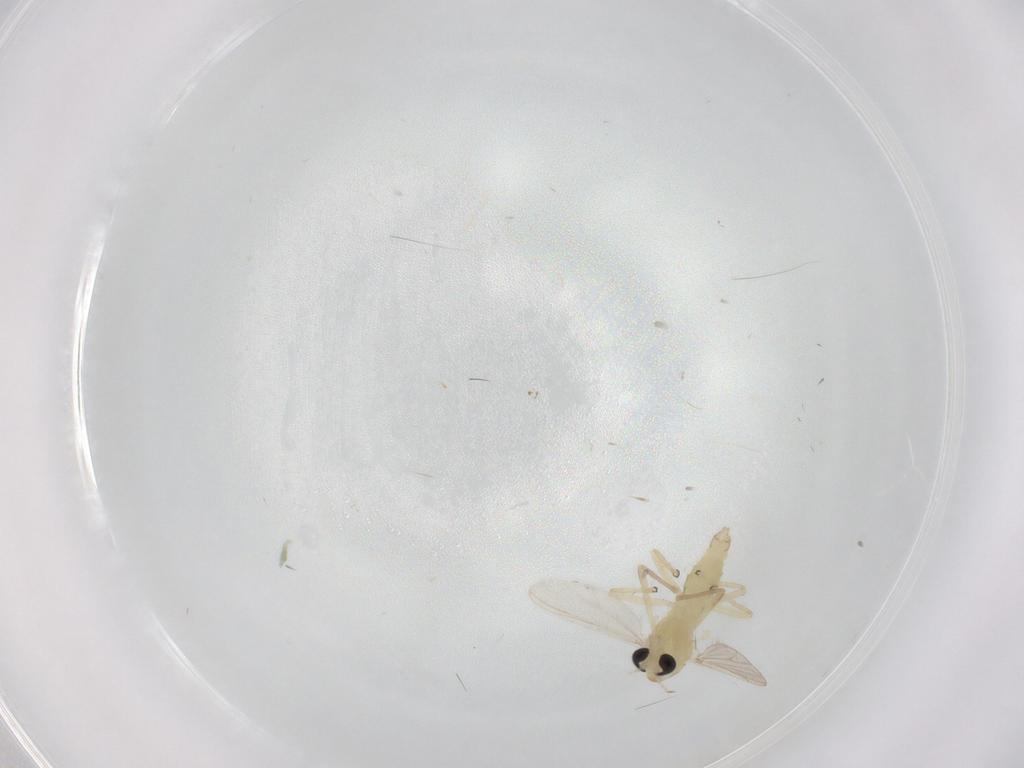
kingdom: Animalia
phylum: Arthropoda
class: Insecta
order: Diptera
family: Chironomidae
